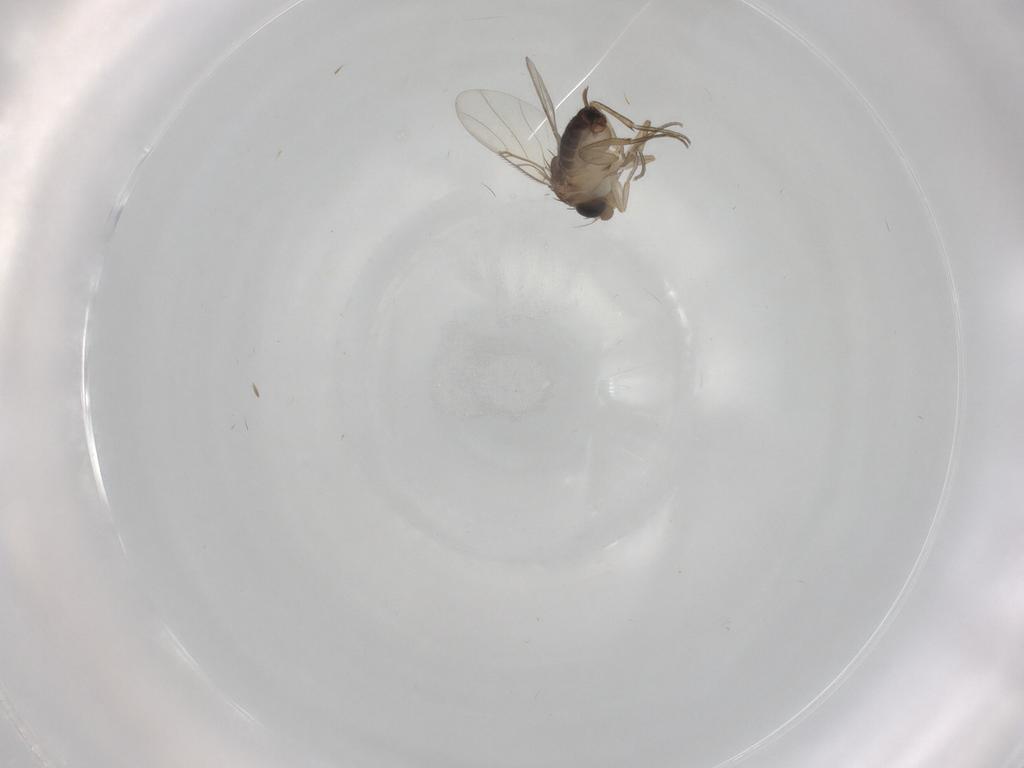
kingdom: Animalia
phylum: Arthropoda
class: Insecta
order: Diptera
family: Phoridae
